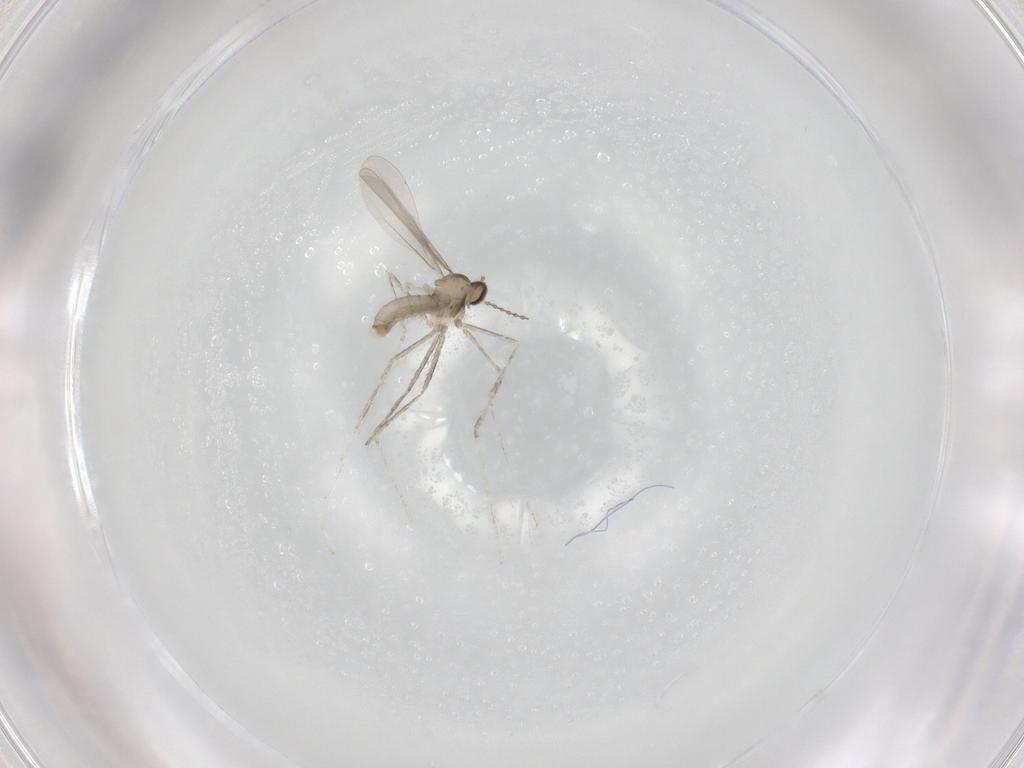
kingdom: Animalia
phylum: Arthropoda
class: Insecta
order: Diptera
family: Cecidomyiidae
